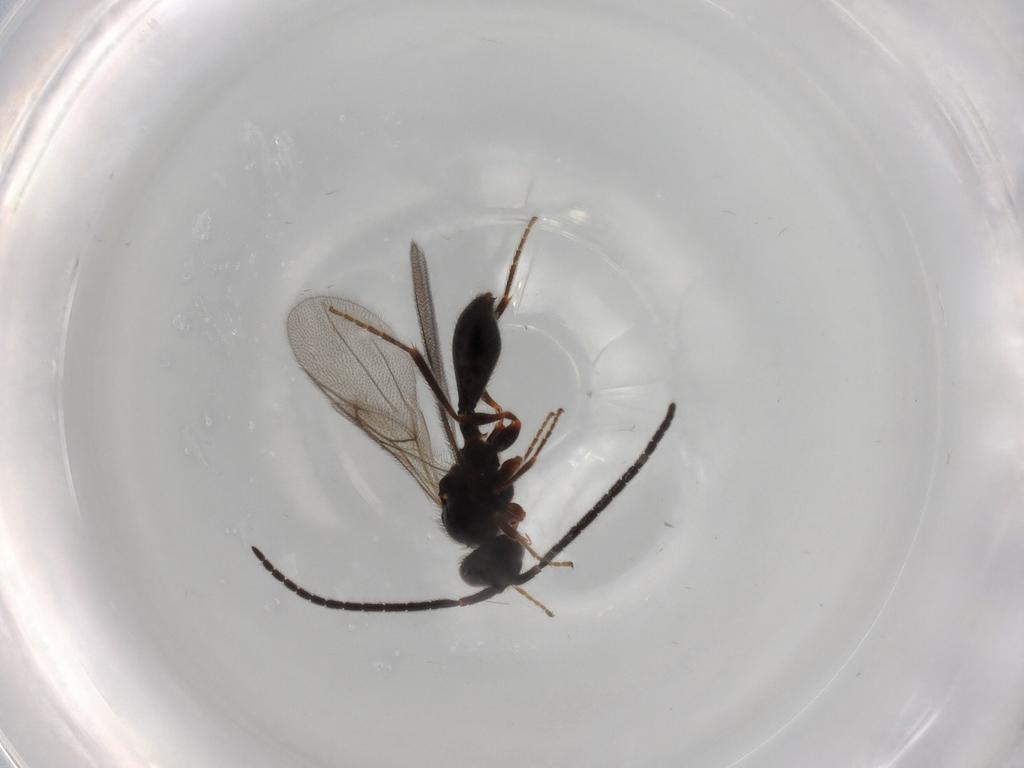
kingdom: Animalia
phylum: Arthropoda
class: Insecta
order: Hymenoptera
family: Diapriidae
